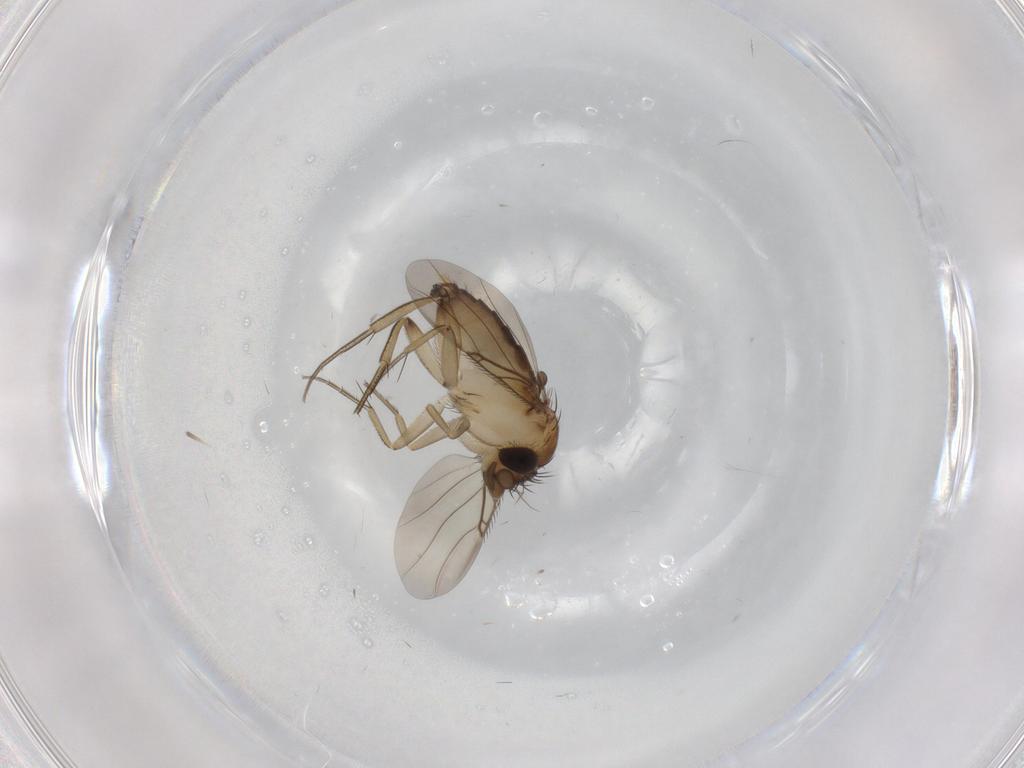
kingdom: Animalia
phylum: Arthropoda
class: Insecta
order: Diptera
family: Phoridae
